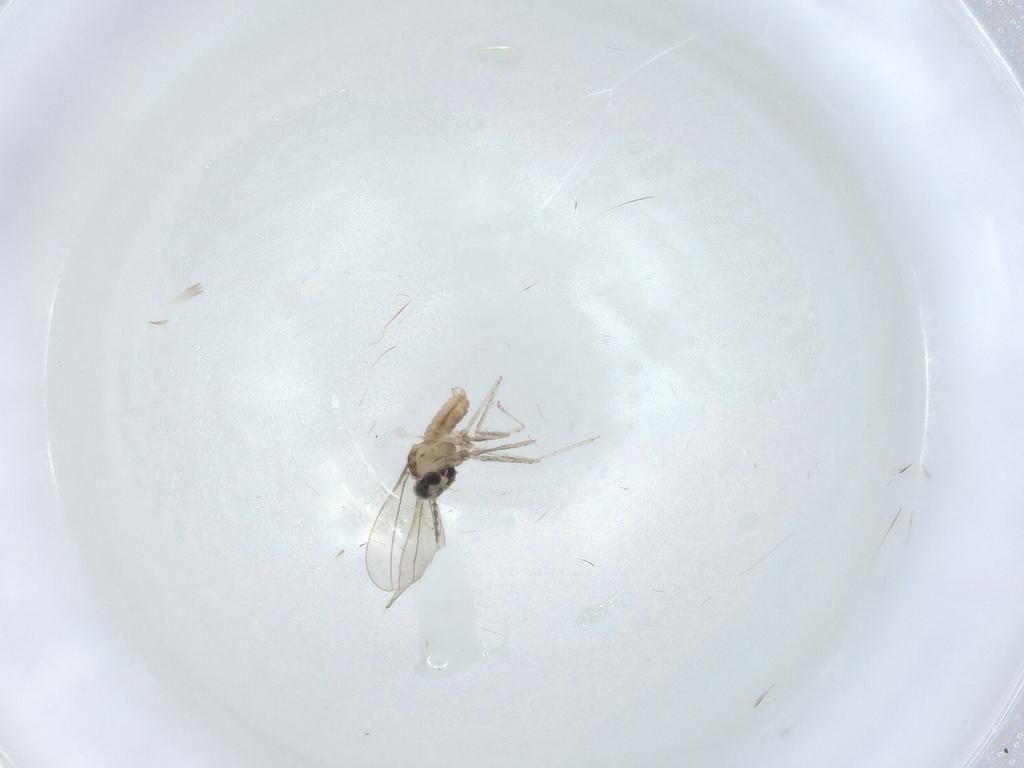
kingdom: Animalia
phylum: Arthropoda
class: Insecta
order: Diptera
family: Cecidomyiidae
